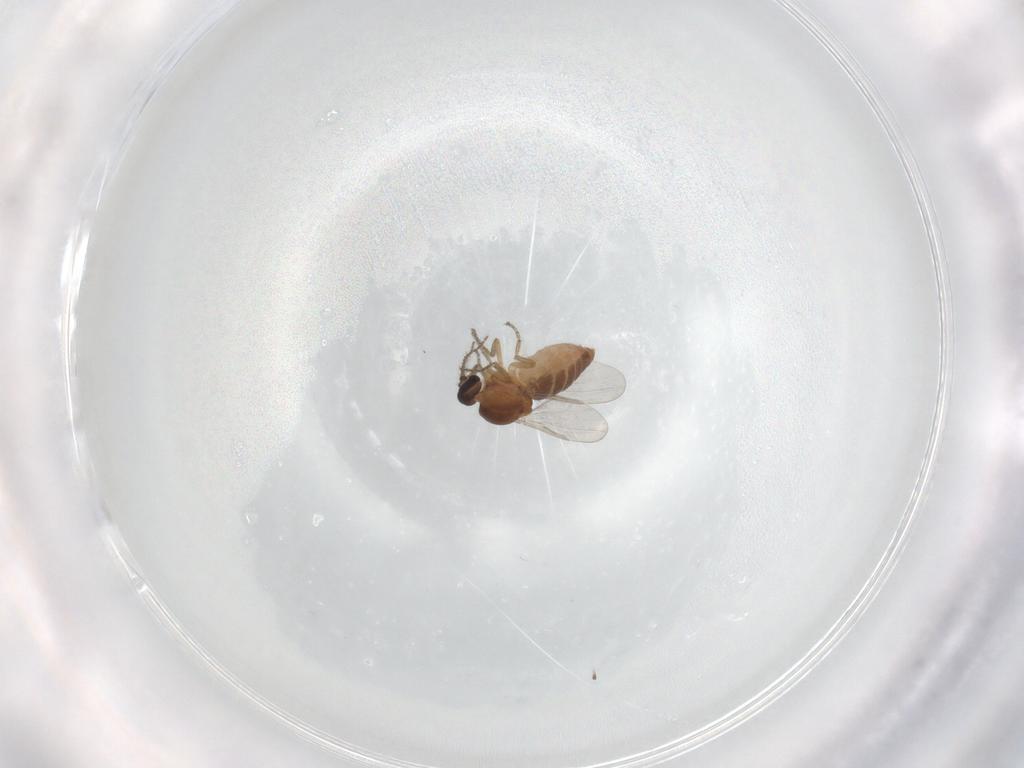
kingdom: Animalia
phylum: Arthropoda
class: Insecta
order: Diptera
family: Ceratopogonidae
